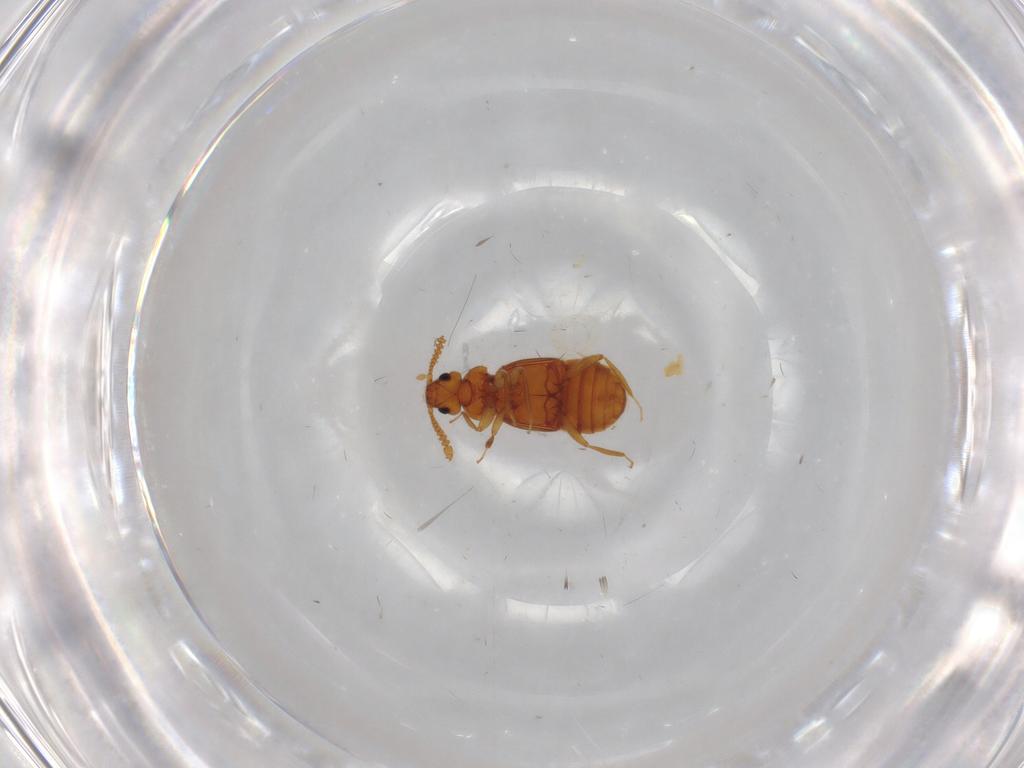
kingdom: Animalia
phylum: Arthropoda
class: Insecta
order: Coleoptera
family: Staphylinidae
